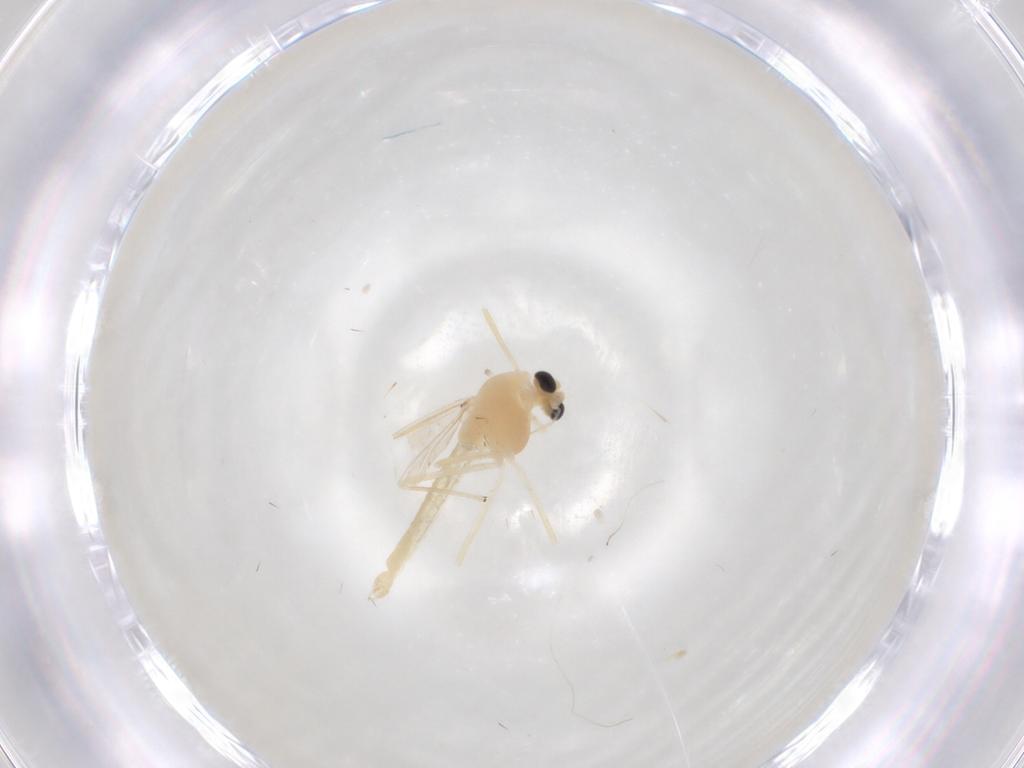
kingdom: Animalia
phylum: Arthropoda
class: Insecta
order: Diptera
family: Chironomidae
